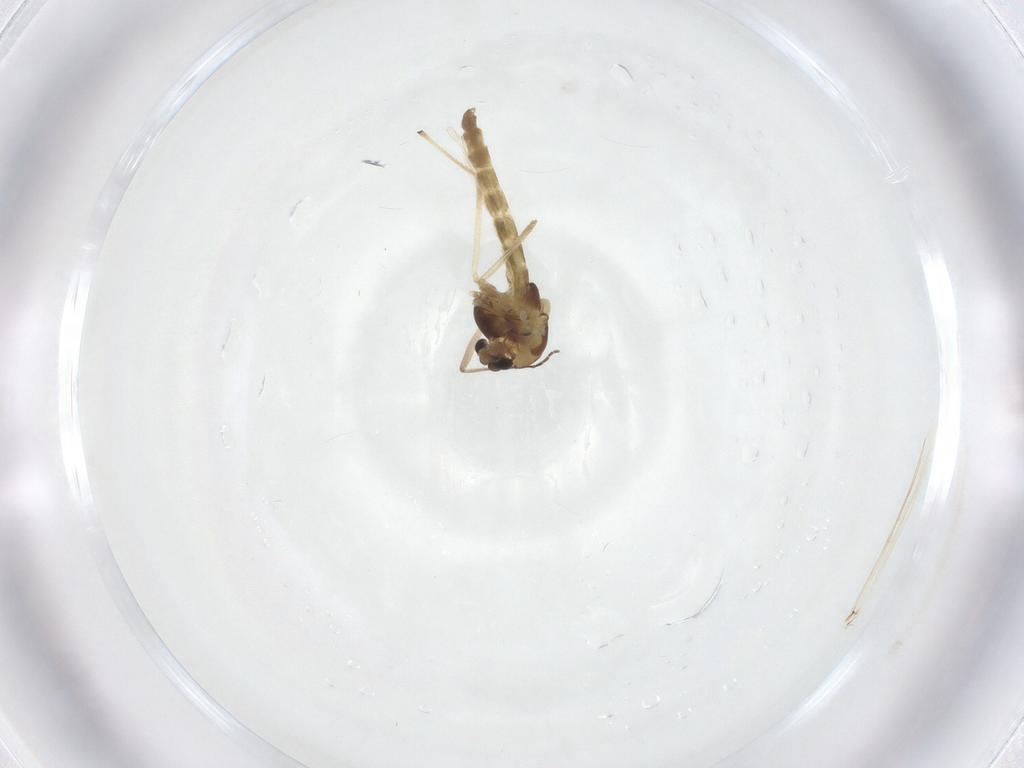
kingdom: Animalia
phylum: Arthropoda
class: Insecta
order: Diptera
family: Chironomidae
